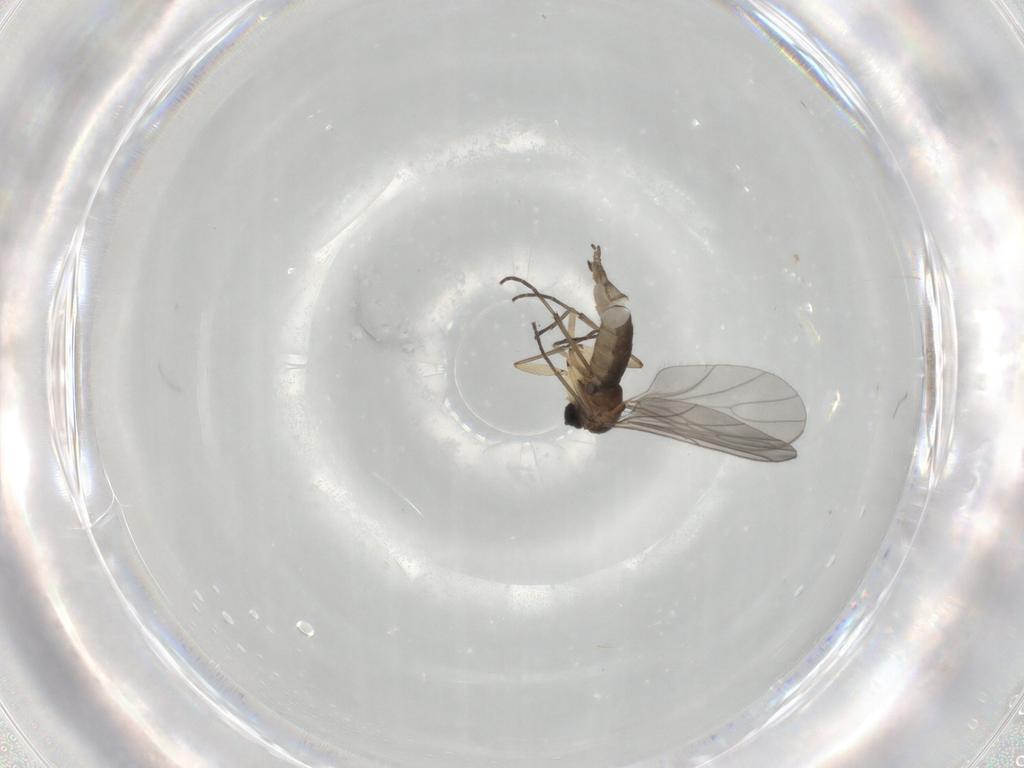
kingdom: Animalia
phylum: Arthropoda
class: Insecta
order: Diptera
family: Sciaridae
